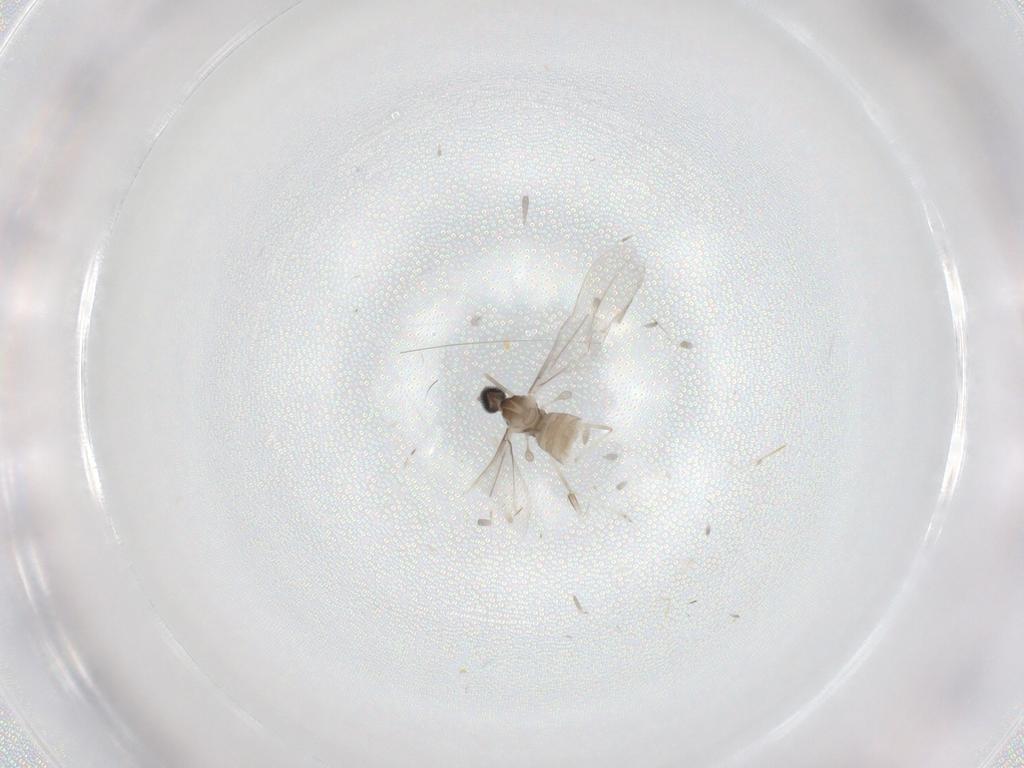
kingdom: Animalia
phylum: Arthropoda
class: Insecta
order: Diptera
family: Cecidomyiidae
